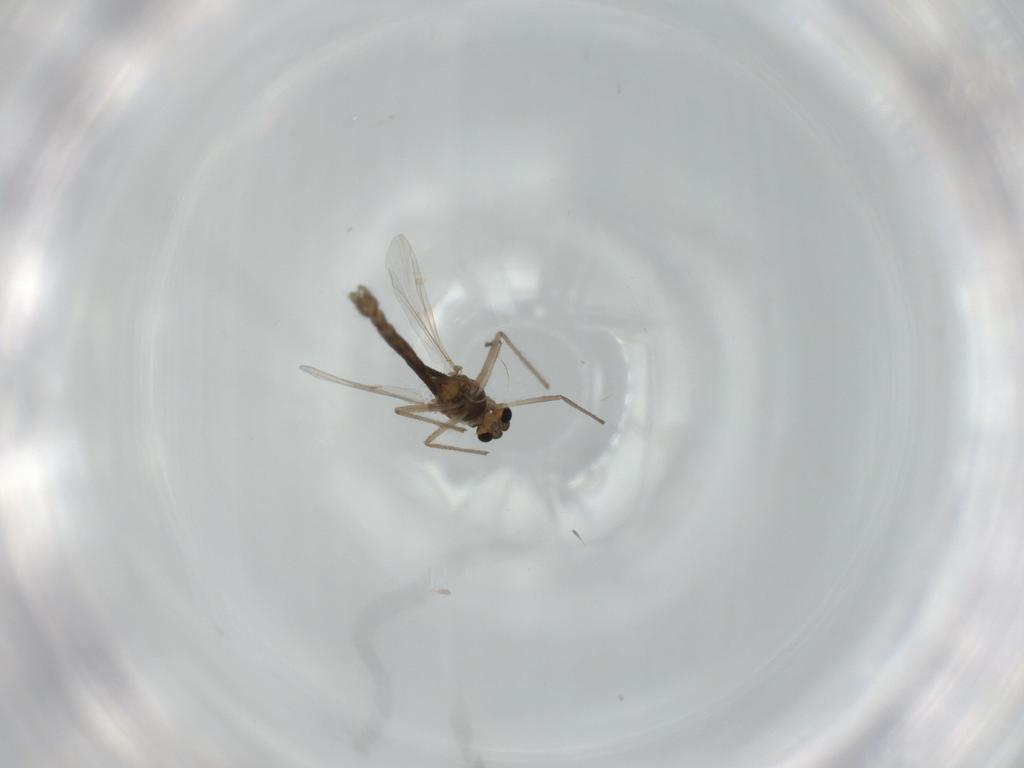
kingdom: Animalia
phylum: Arthropoda
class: Insecta
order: Diptera
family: Chironomidae
